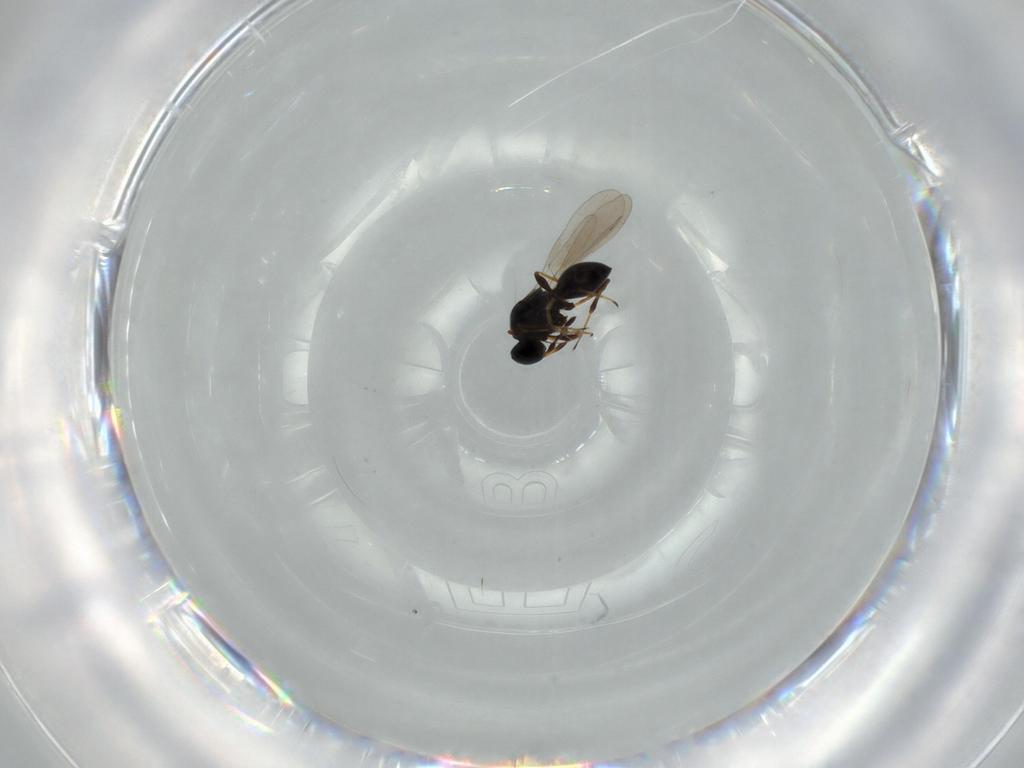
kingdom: Animalia
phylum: Arthropoda
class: Insecta
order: Hymenoptera
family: Platygastridae
